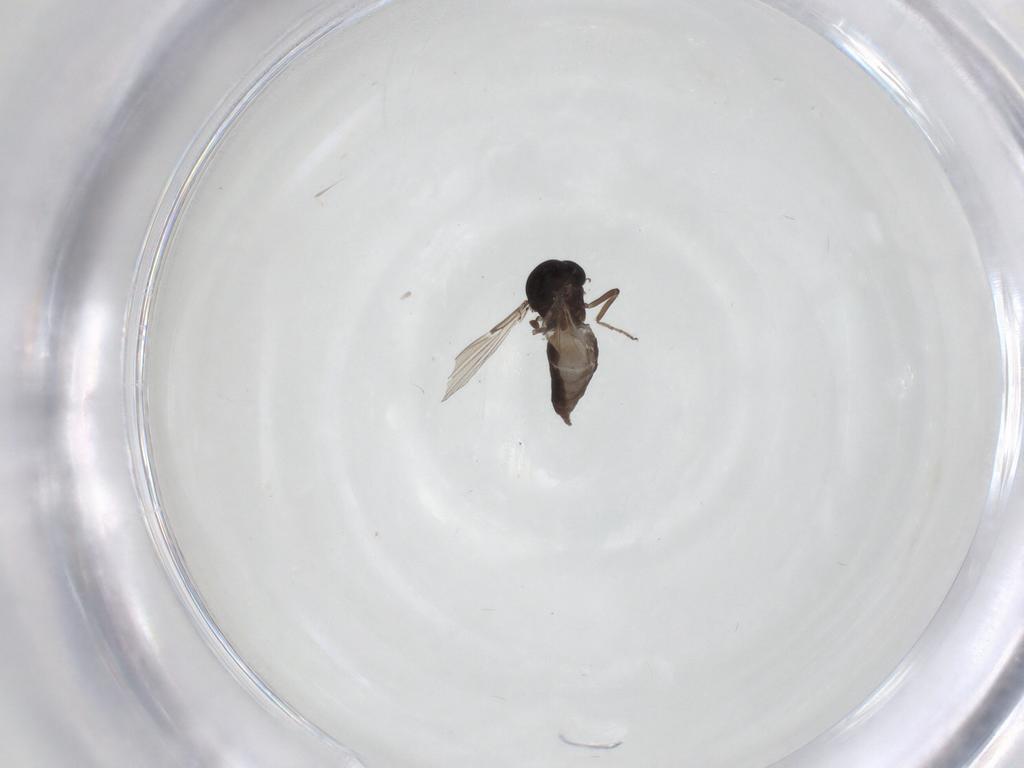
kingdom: Animalia
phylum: Arthropoda
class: Insecta
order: Diptera
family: Ceratopogonidae
